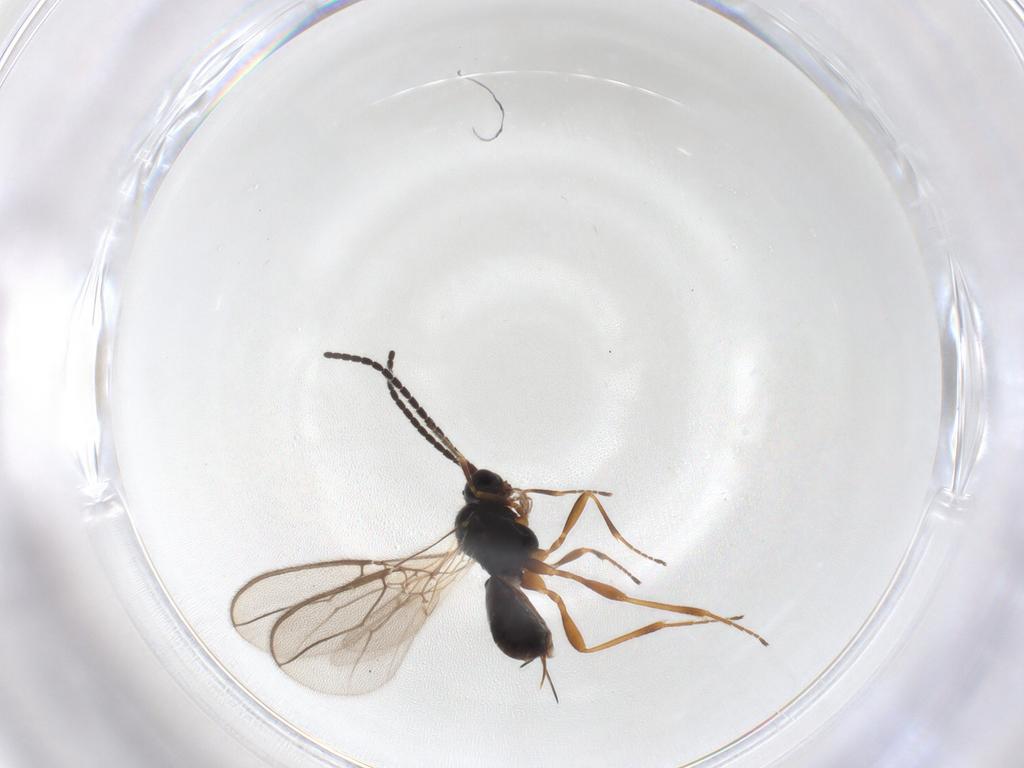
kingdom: Animalia
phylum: Arthropoda
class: Insecta
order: Hymenoptera
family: Braconidae
